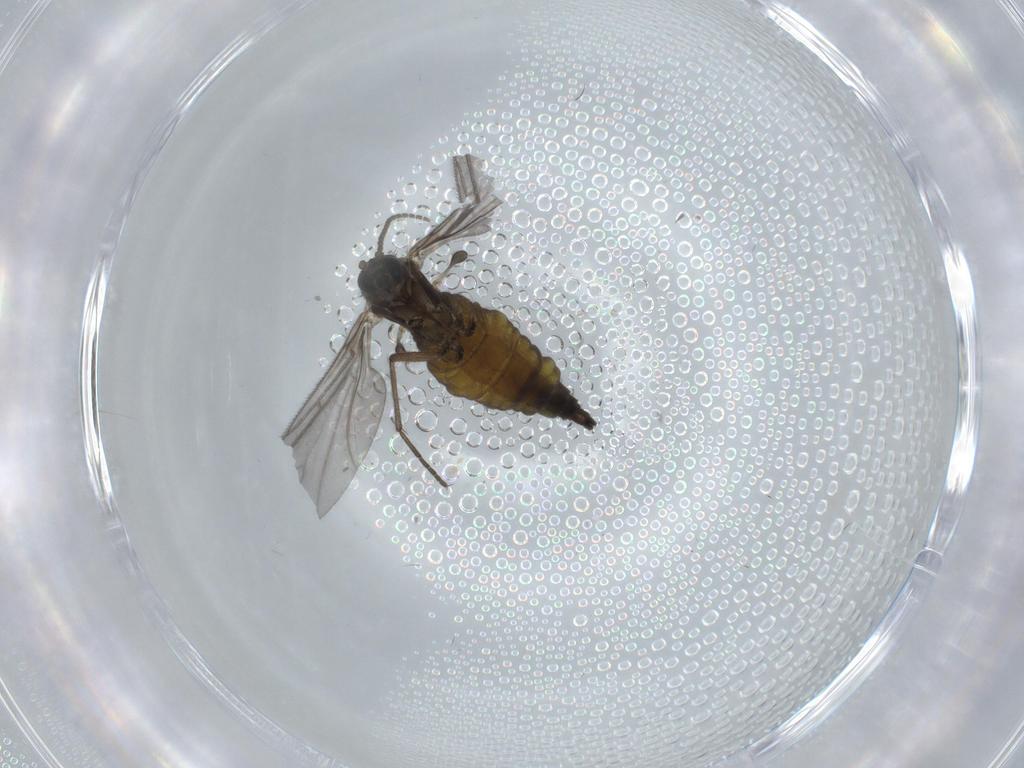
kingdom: Animalia
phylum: Arthropoda
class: Insecta
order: Diptera
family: Sciaridae
